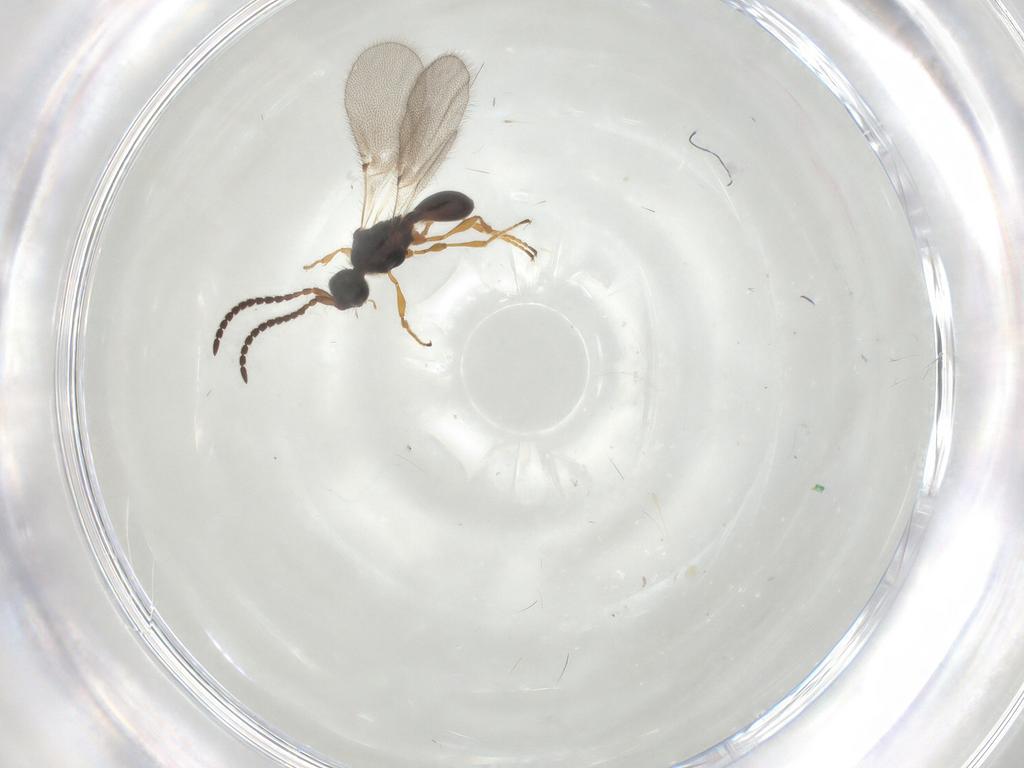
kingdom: Animalia
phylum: Arthropoda
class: Insecta
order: Hymenoptera
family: Diapriidae
